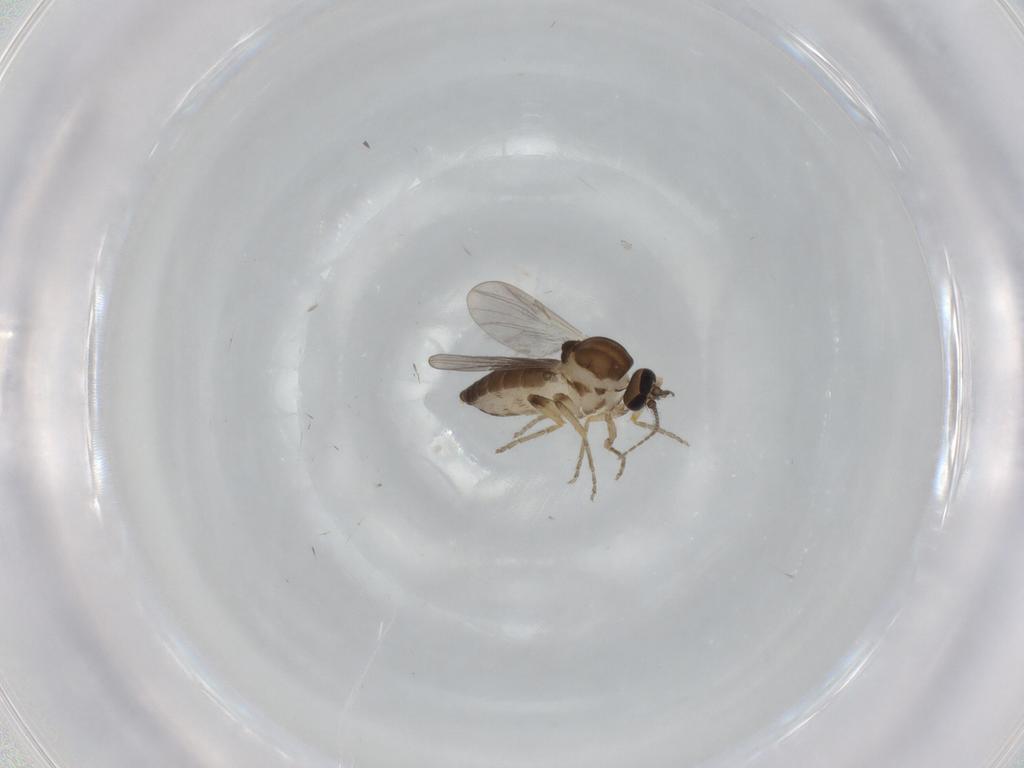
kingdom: Animalia
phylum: Arthropoda
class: Insecta
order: Diptera
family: Ceratopogonidae
